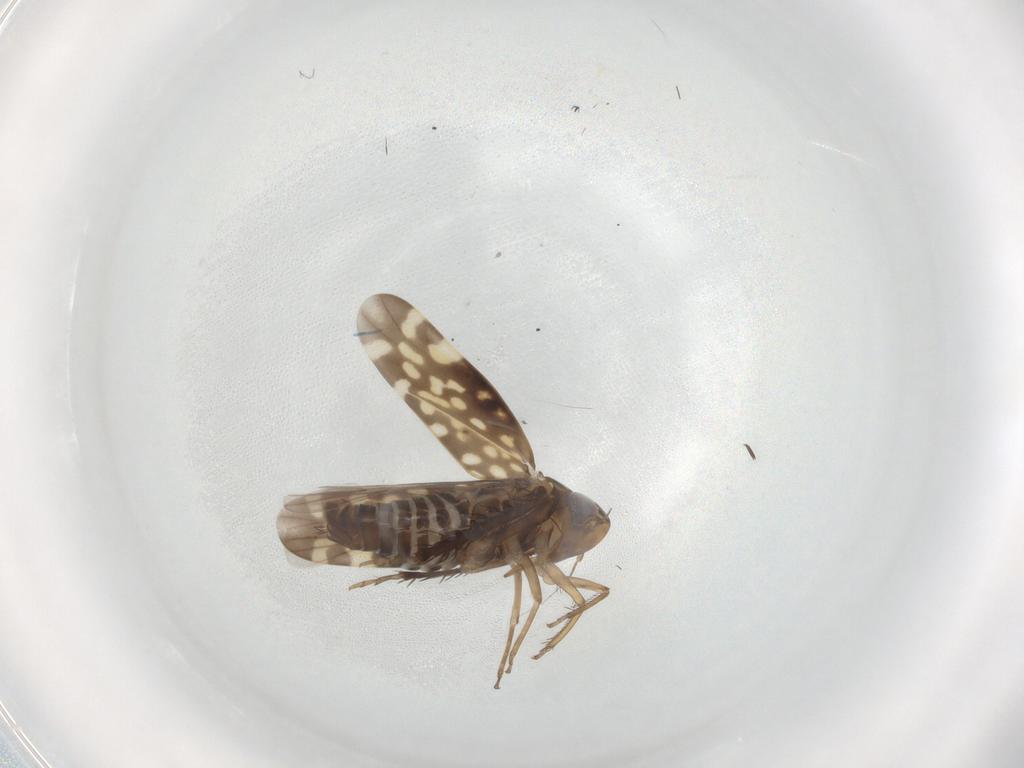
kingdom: Animalia
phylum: Arthropoda
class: Insecta
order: Hemiptera
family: Cicadellidae
